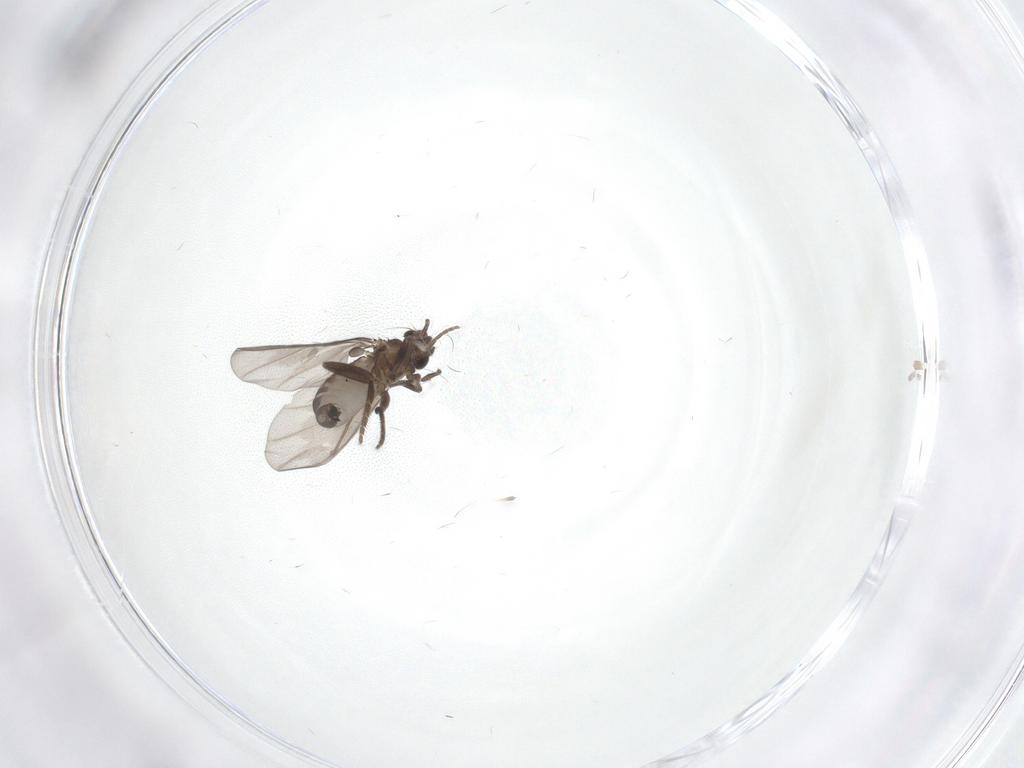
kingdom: Animalia
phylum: Arthropoda
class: Insecta
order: Diptera
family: Phoridae
